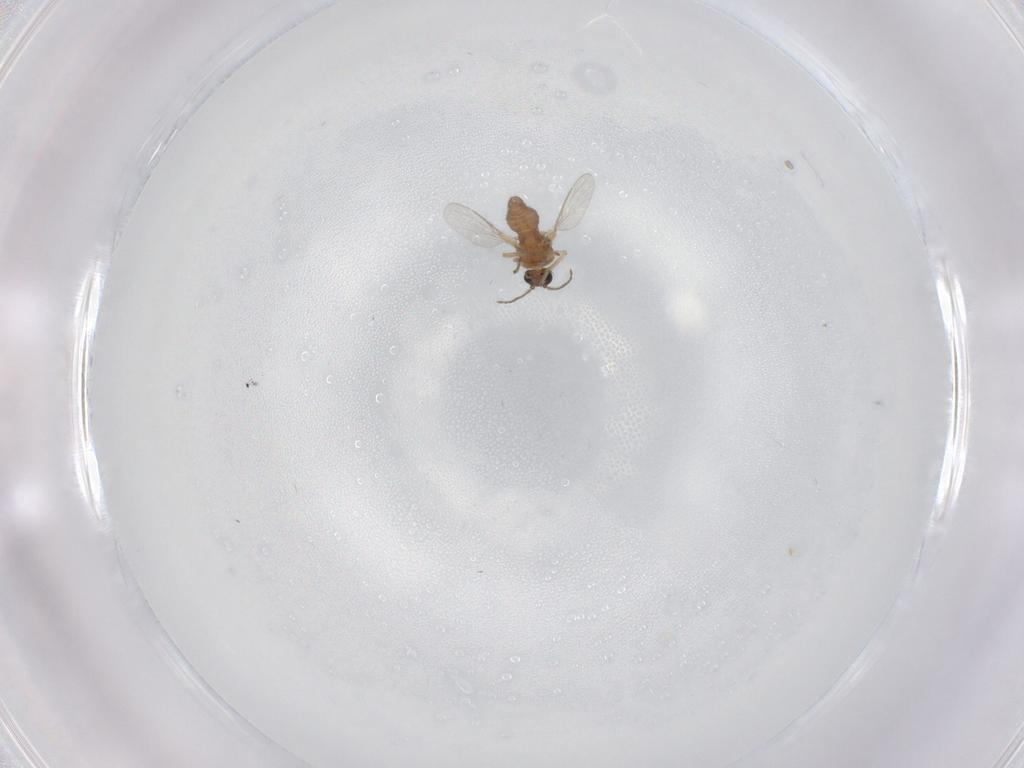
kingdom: Animalia
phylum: Arthropoda
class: Insecta
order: Diptera
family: Ceratopogonidae
